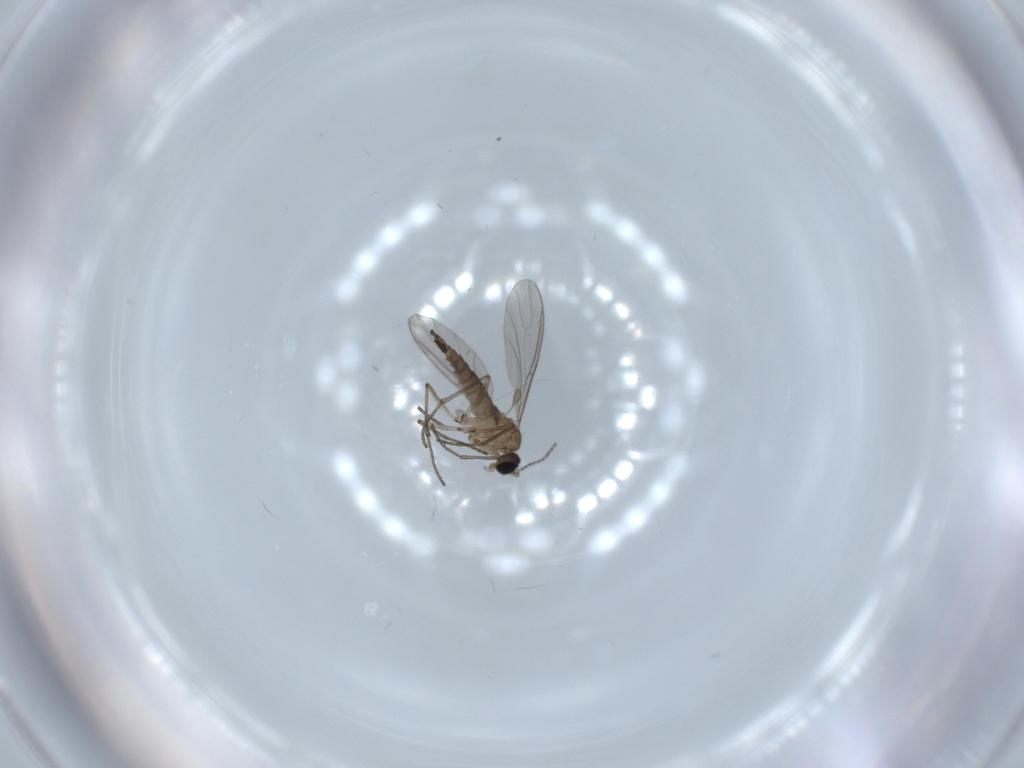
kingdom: Animalia
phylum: Arthropoda
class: Insecta
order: Diptera
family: Sciaridae
